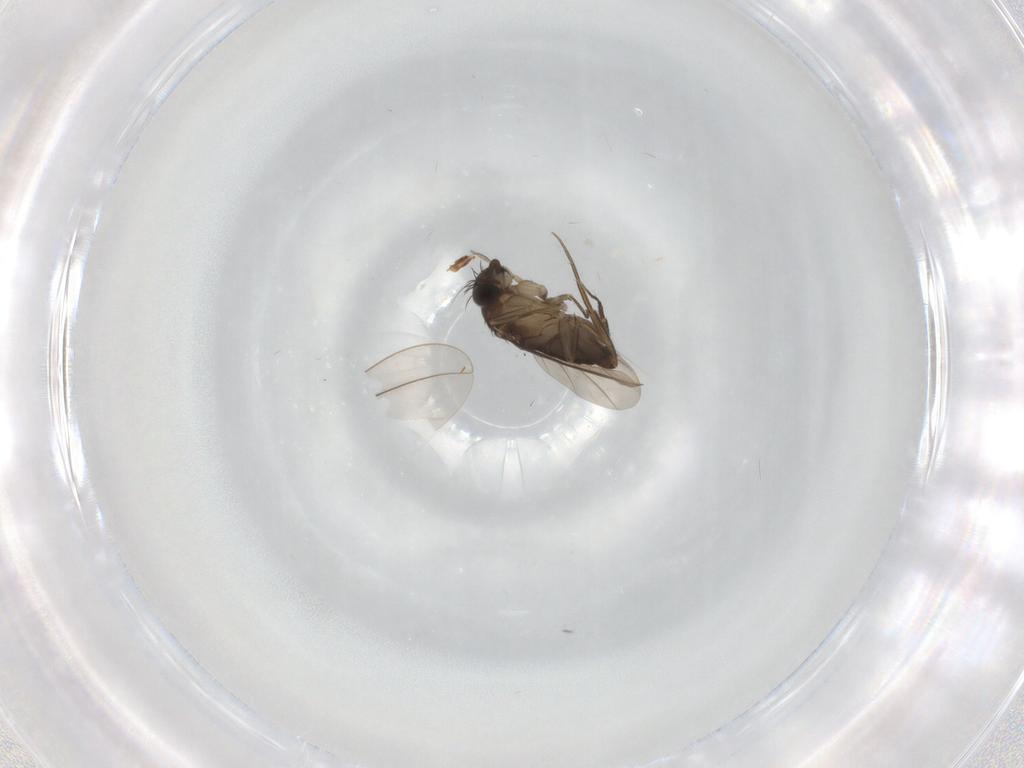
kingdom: Animalia
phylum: Arthropoda
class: Insecta
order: Diptera
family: Phoridae
